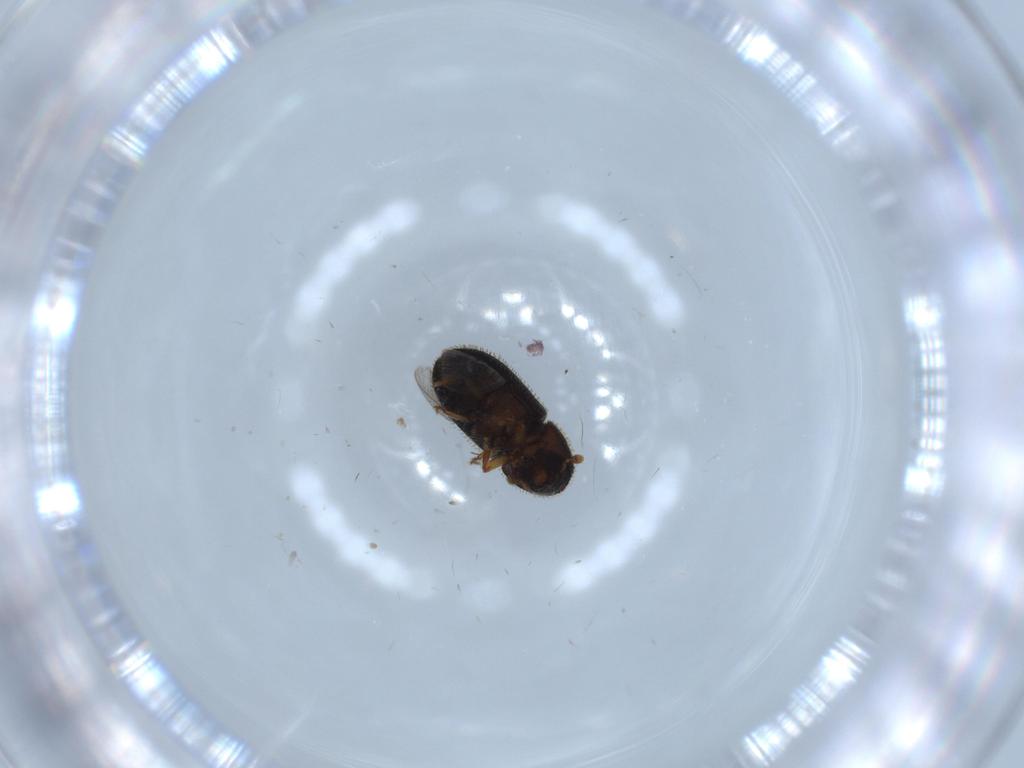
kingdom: Animalia
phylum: Arthropoda
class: Insecta
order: Coleoptera
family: Curculionidae
